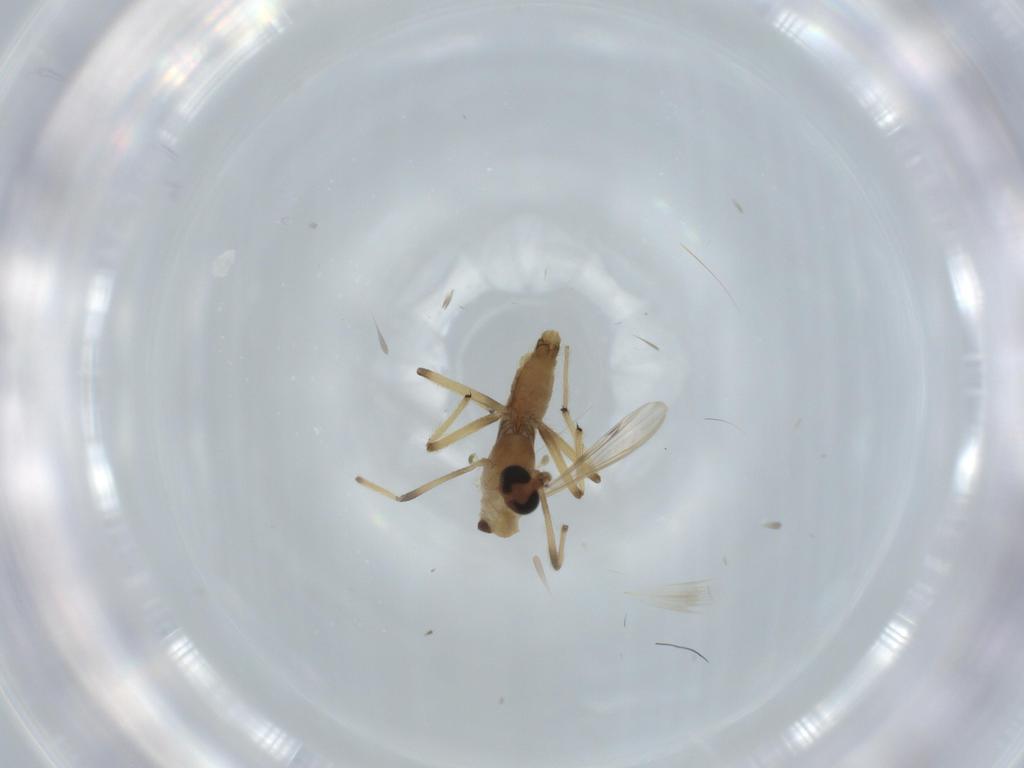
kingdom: Animalia
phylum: Arthropoda
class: Insecta
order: Diptera
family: Chironomidae
